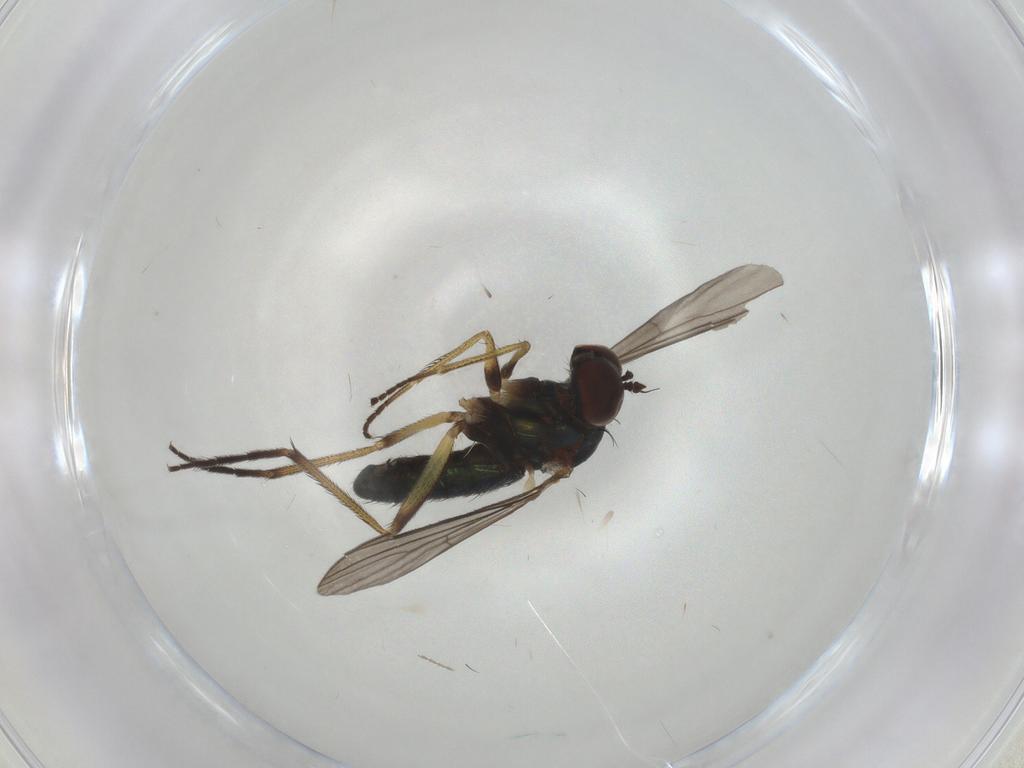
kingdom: Animalia
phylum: Arthropoda
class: Insecta
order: Diptera
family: Dolichopodidae
